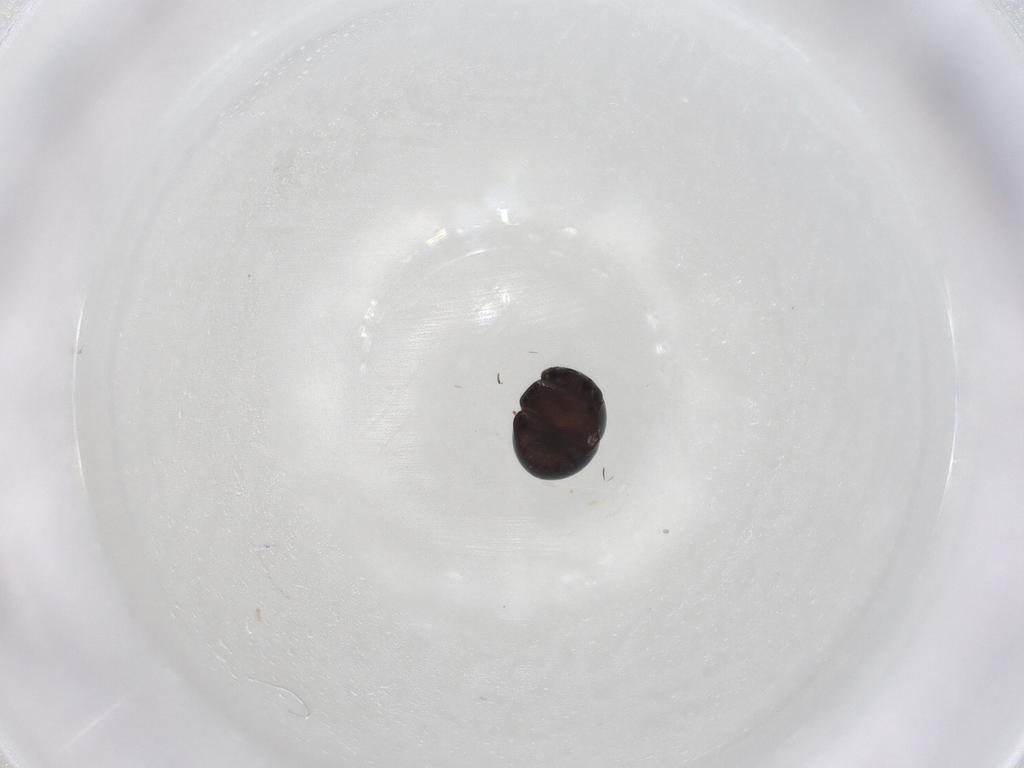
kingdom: Animalia
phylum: Arthropoda
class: Insecta
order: Coleoptera
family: Cybocephalidae
